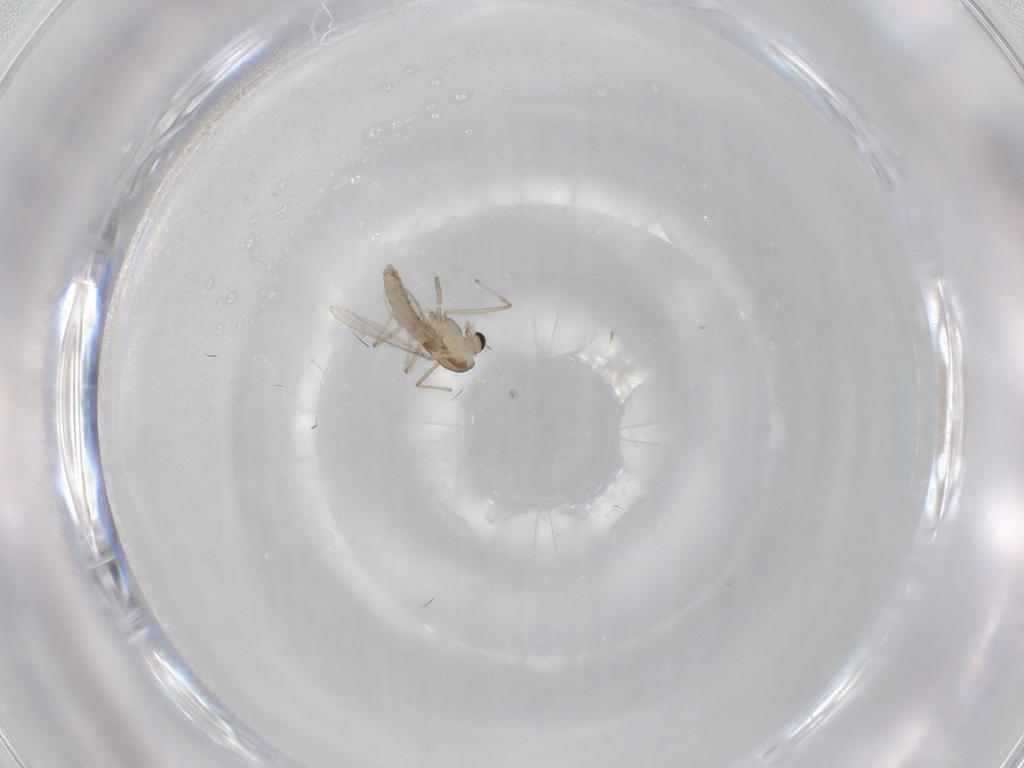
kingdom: Animalia
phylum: Arthropoda
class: Insecta
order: Diptera
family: Chironomidae
